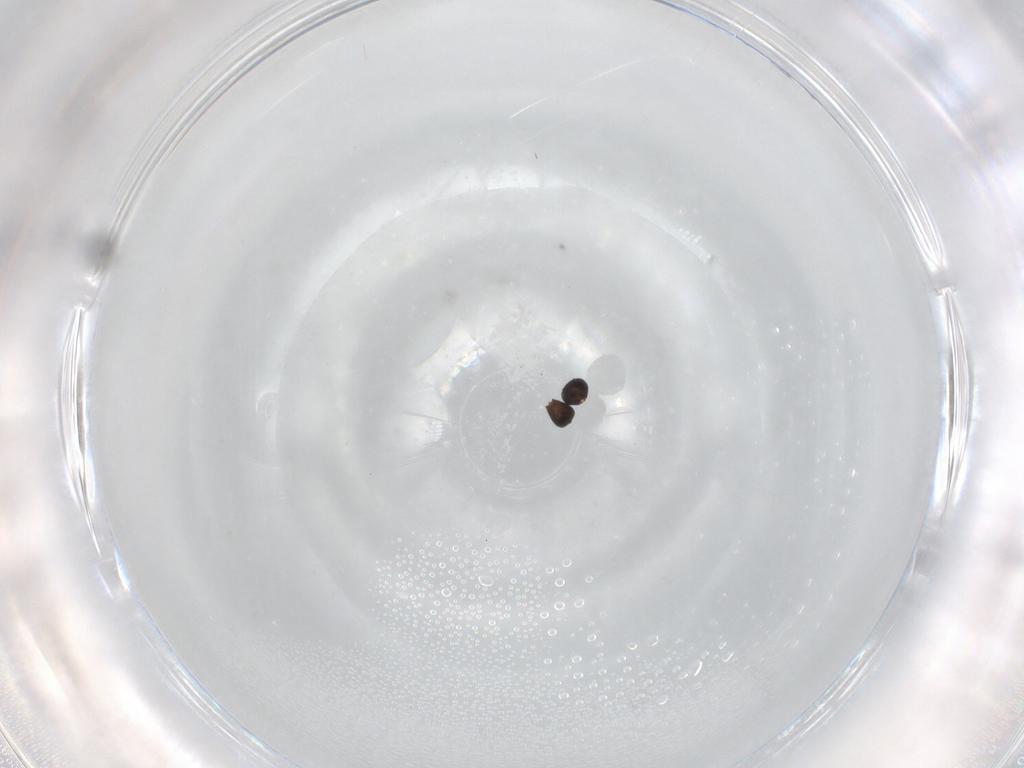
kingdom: Animalia
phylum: Arthropoda
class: Insecta
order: Hymenoptera
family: Scelionidae
